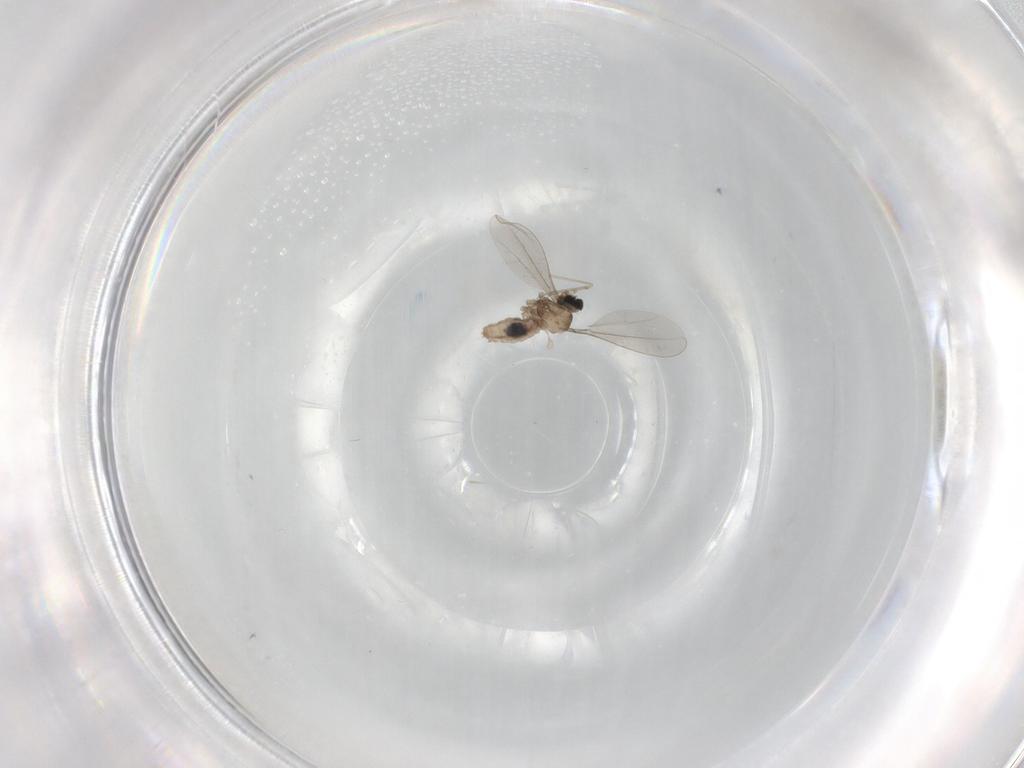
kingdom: Animalia
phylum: Arthropoda
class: Insecta
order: Diptera
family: Cecidomyiidae
